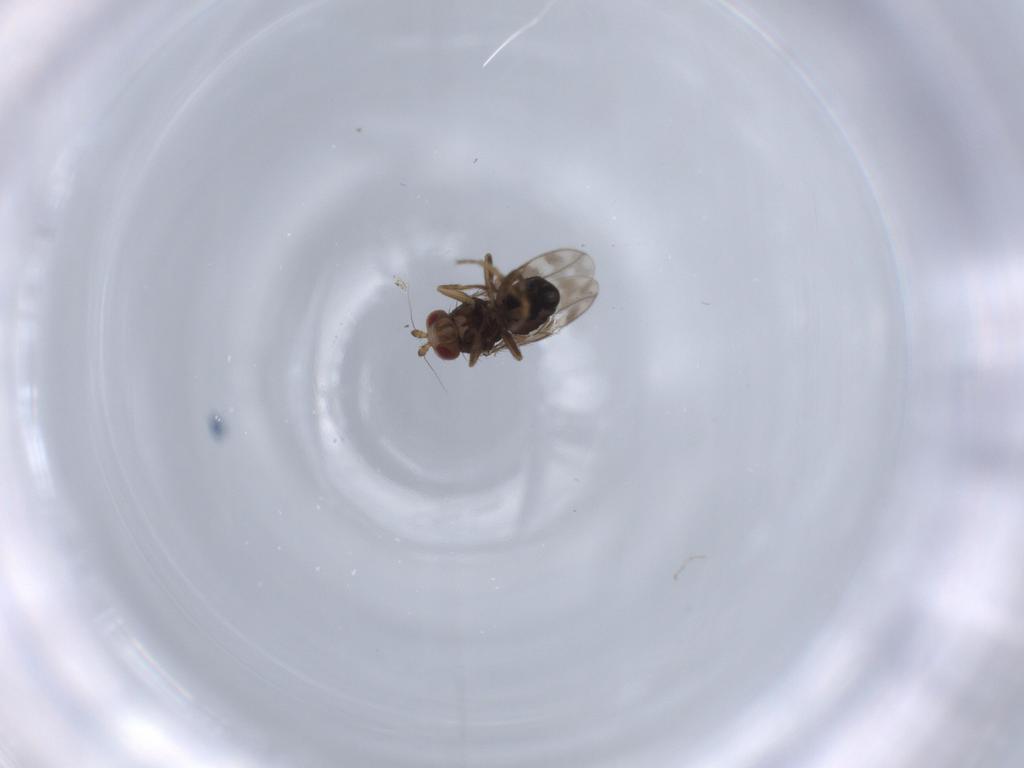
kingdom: Animalia
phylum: Arthropoda
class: Insecta
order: Diptera
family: Sphaeroceridae
